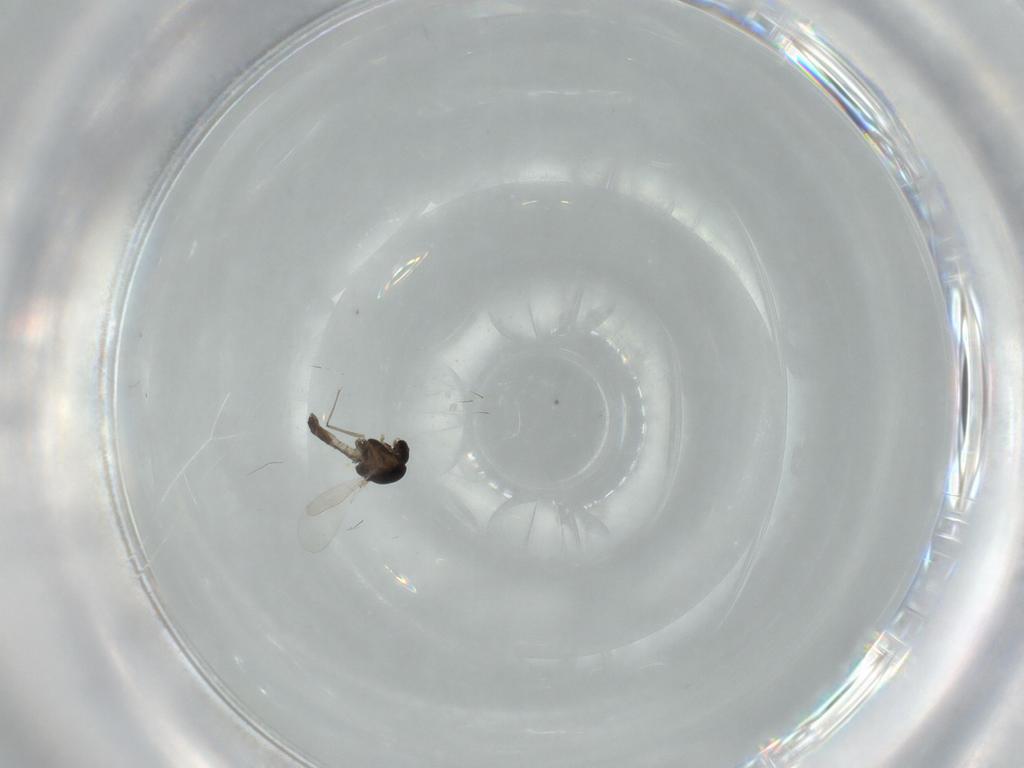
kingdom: Animalia
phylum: Arthropoda
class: Insecta
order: Diptera
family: Chironomidae
